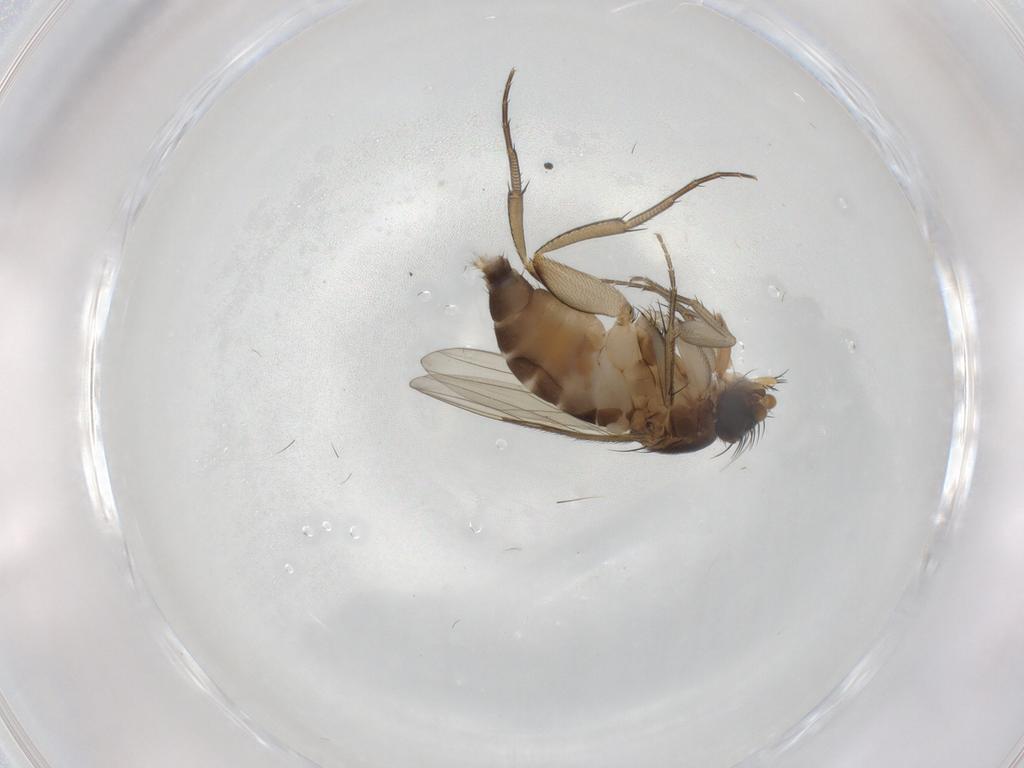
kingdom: Animalia
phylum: Arthropoda
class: Insecta
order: Diptera
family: Phoridae
